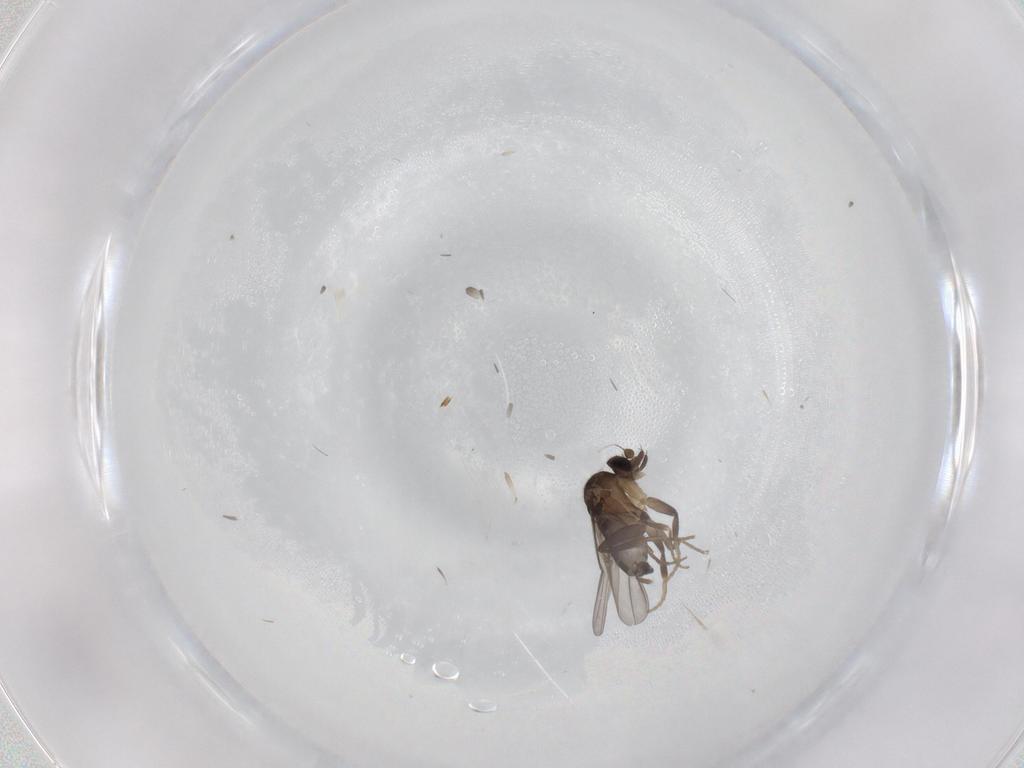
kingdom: Animalia
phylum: Arthropoda
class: Insecta
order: Diptera
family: Phoridae
